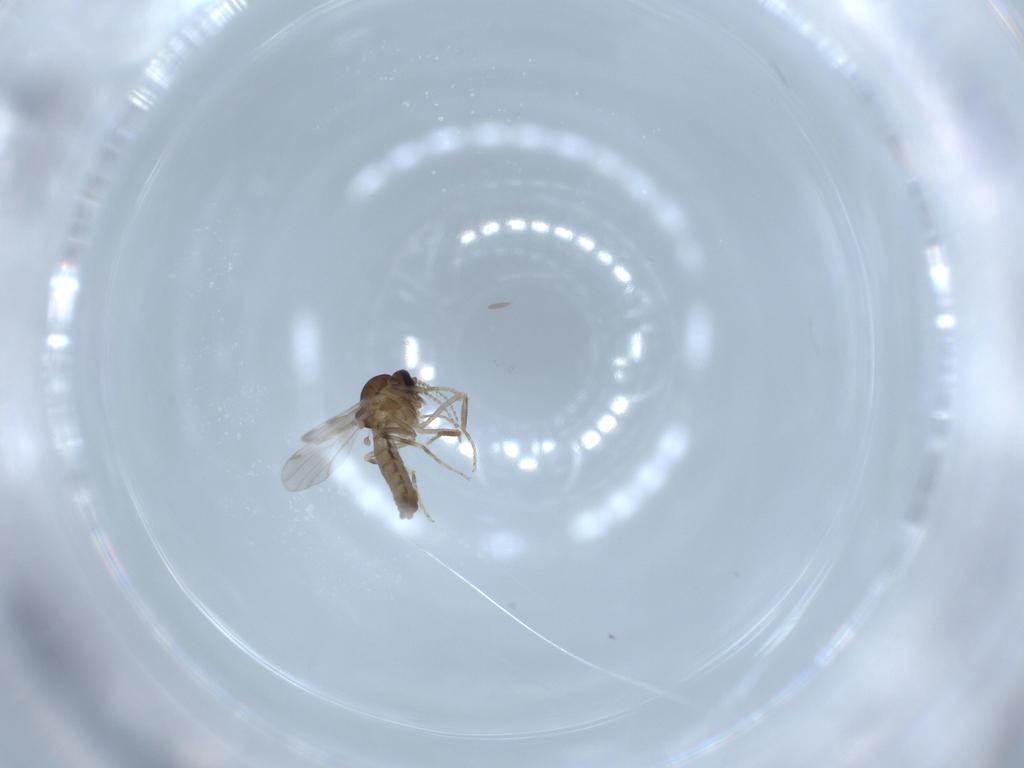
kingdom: Animalia
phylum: Arthropoda
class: Insecta
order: Diptera
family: Ceratopogonidae
